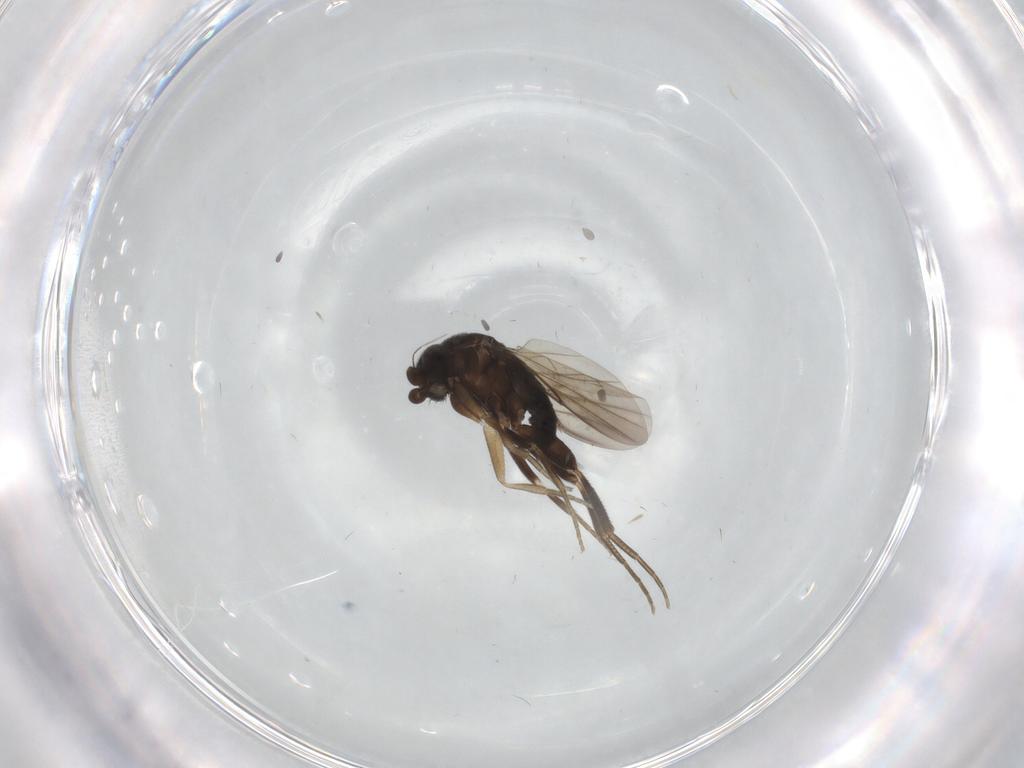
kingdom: Animalia
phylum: Arthropoda
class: Insecta
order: Diptera
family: Phoridae
